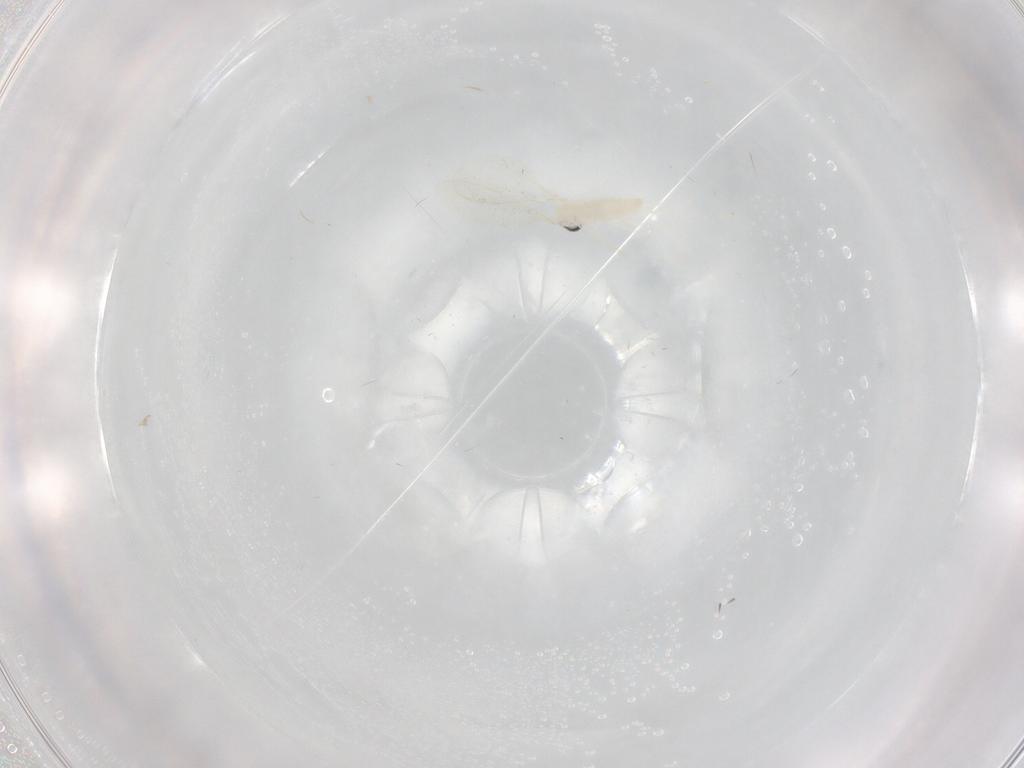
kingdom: Animalia
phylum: Arthropoda
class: Insecta
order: Diptera
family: Cecidomyiidae
